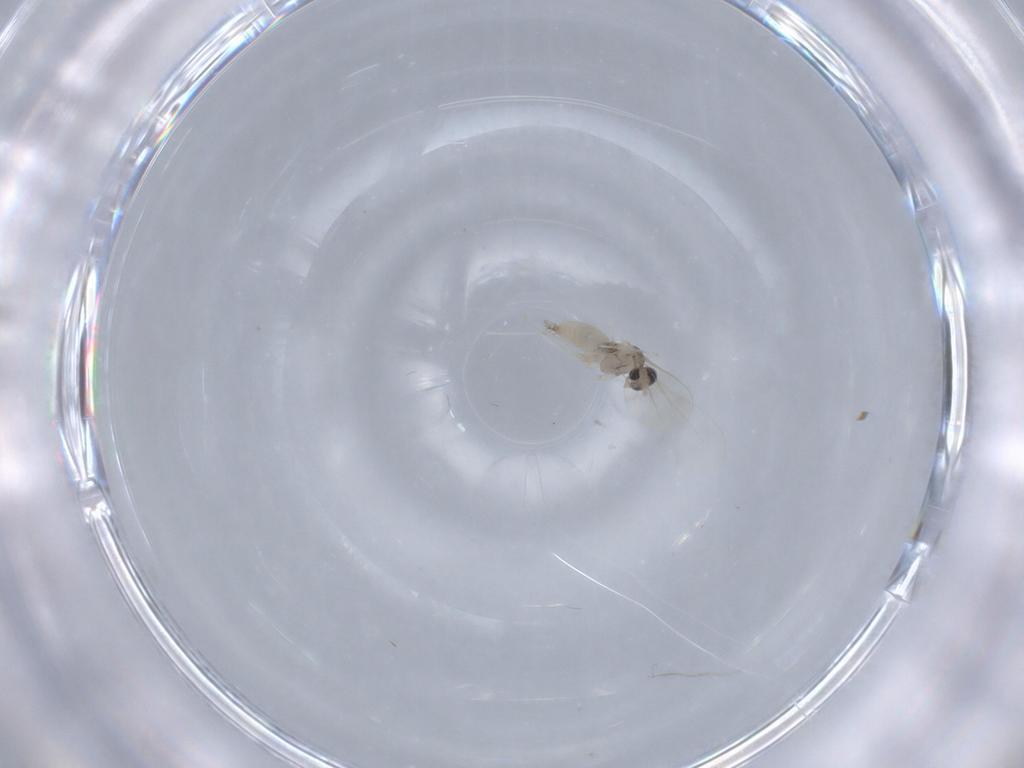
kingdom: Animalia
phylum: Arthropoda
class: Insecta
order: Diptera
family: Cecidomyiidae
